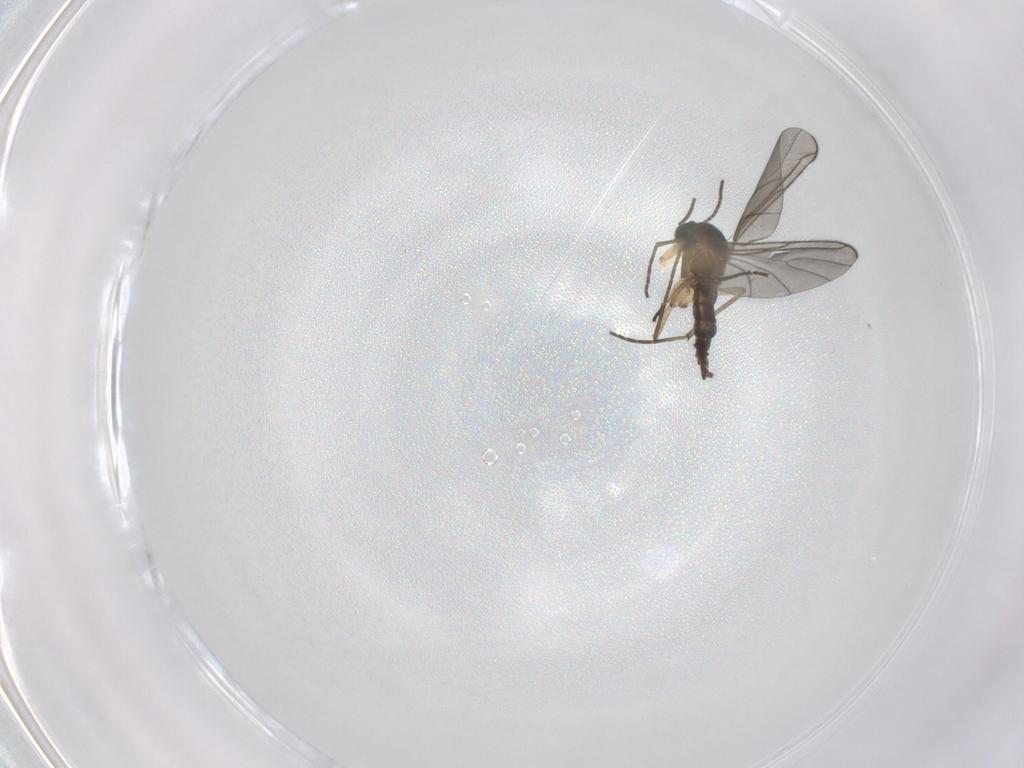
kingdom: Animalia
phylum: Arthropoda
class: Insecta
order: Diptera
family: Sciaridae
